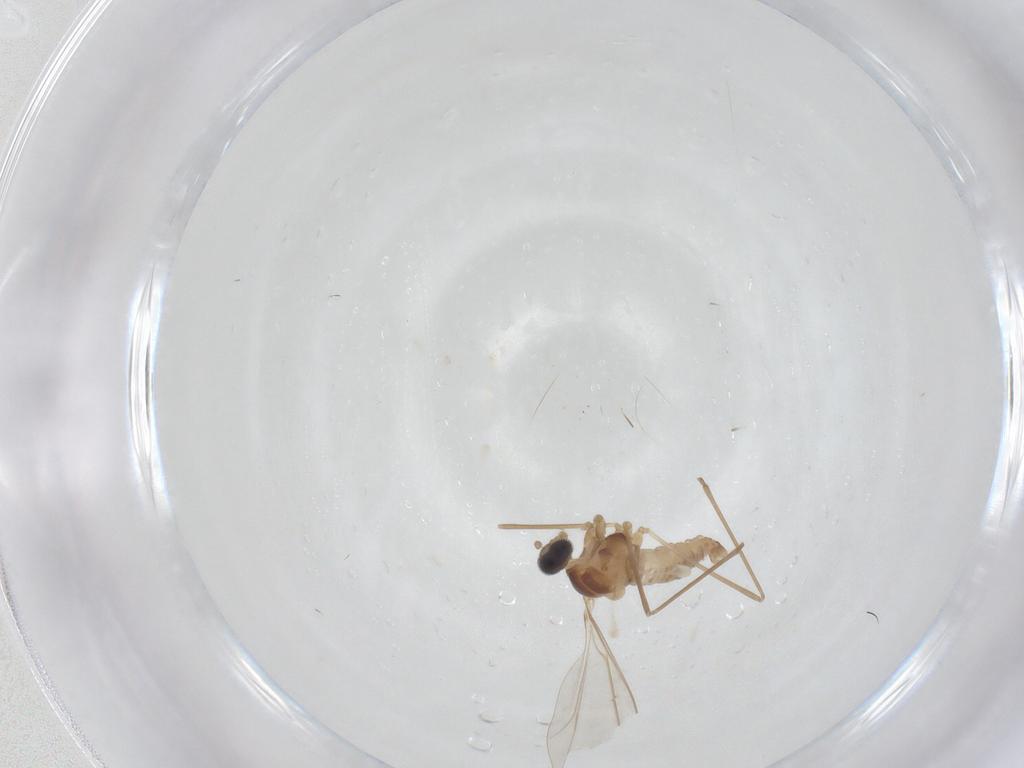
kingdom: Animalia
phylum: Arthropoda
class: Insecta
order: Diptera
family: Cecidomyiidae
